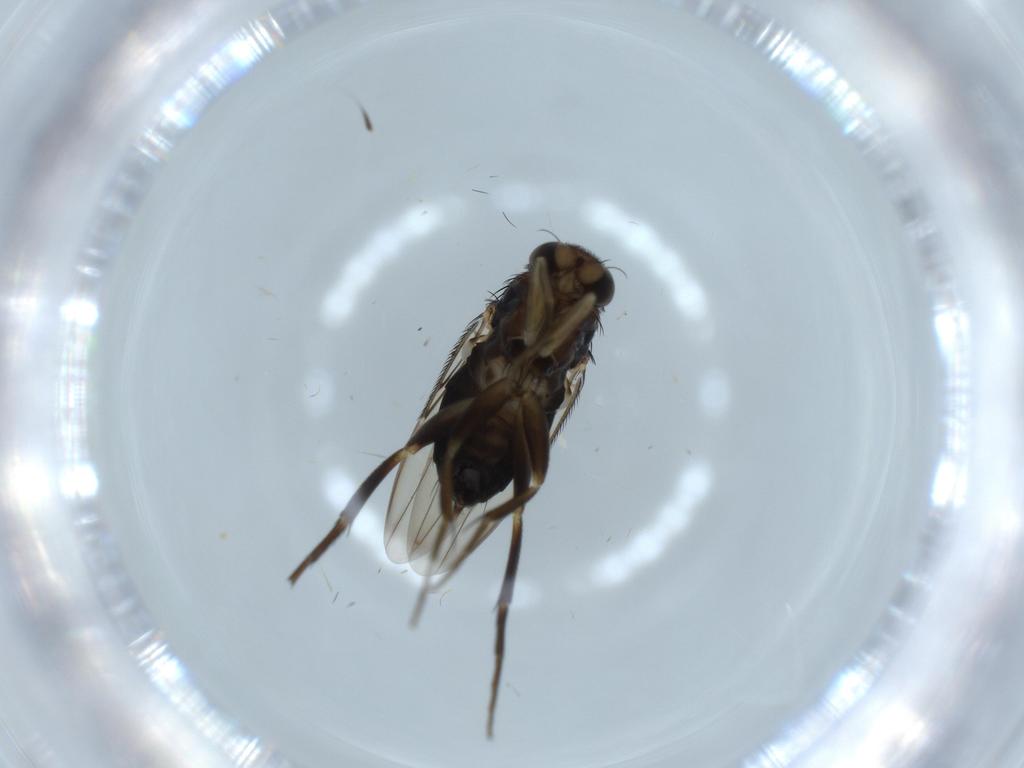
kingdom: Animalia
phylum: Arthropoda
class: Insecta
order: Diptera
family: Phoridae
